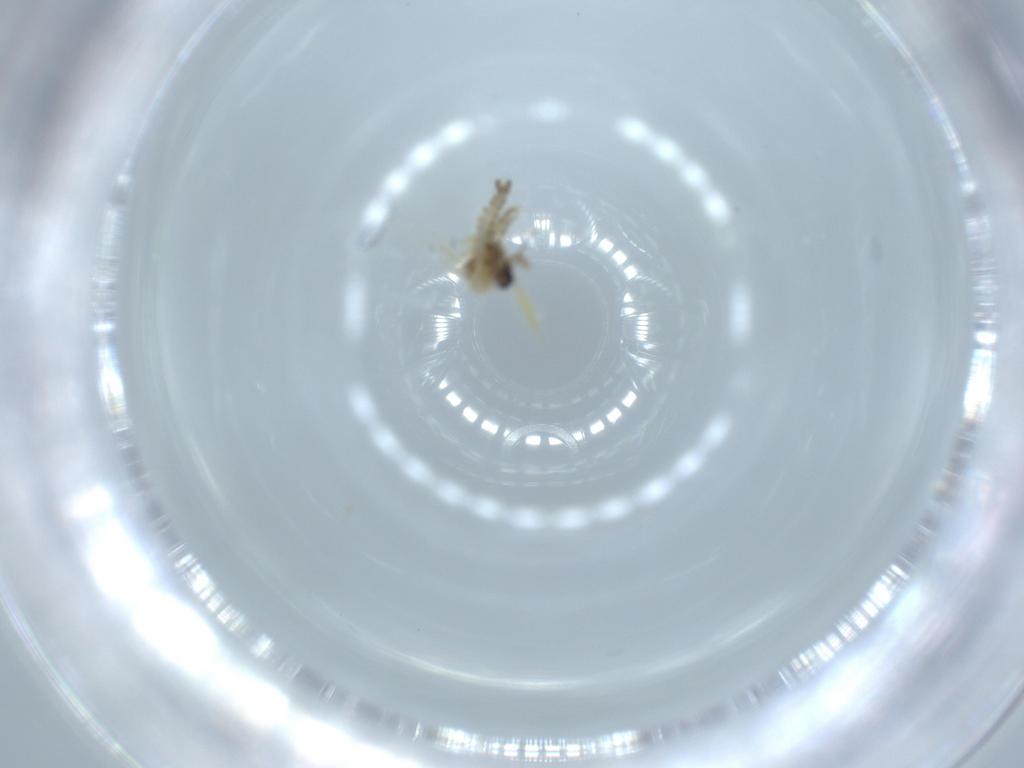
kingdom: Animalia
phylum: Arthropoda
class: Insecta
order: Diptera
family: Chironomidae
